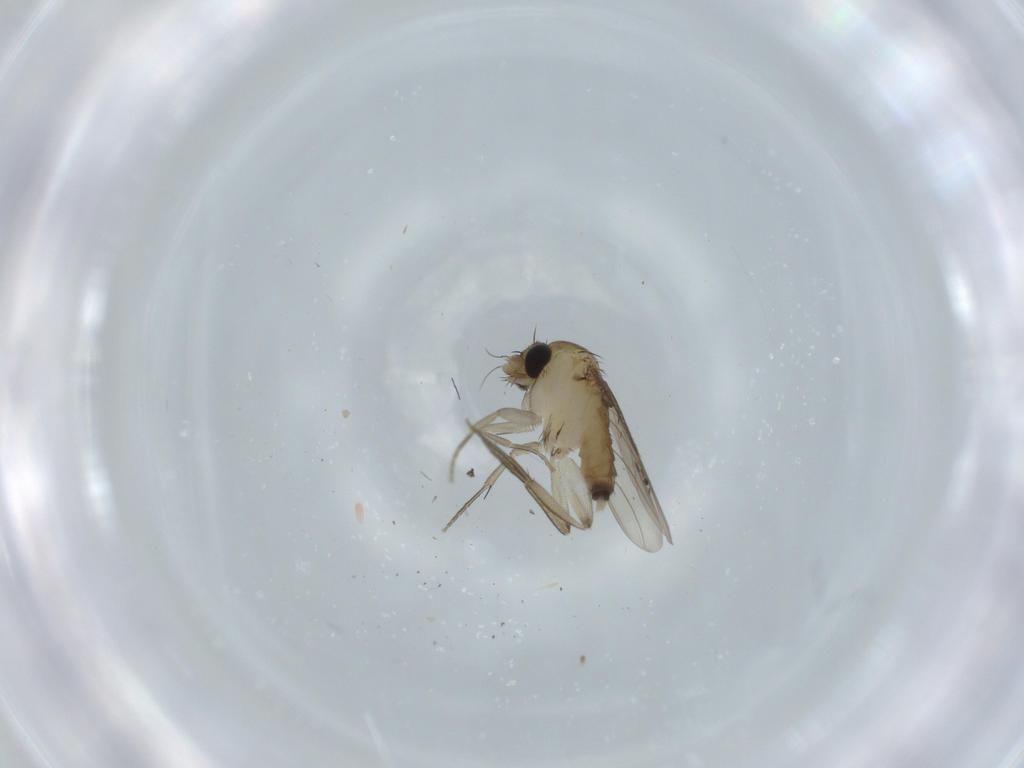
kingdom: Animalia
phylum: Arthropoda
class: Insecta
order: Diptera
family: Phoridae
